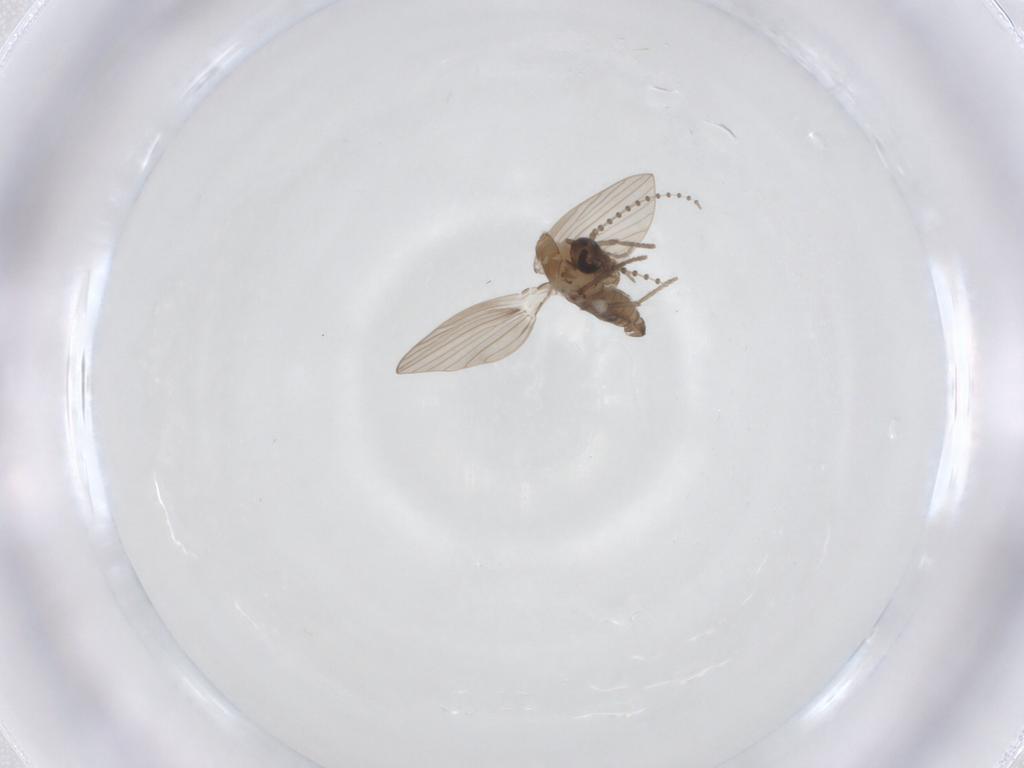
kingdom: Animalia
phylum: Arthropoda
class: Insecta
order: Diptera
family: Psychodidae
